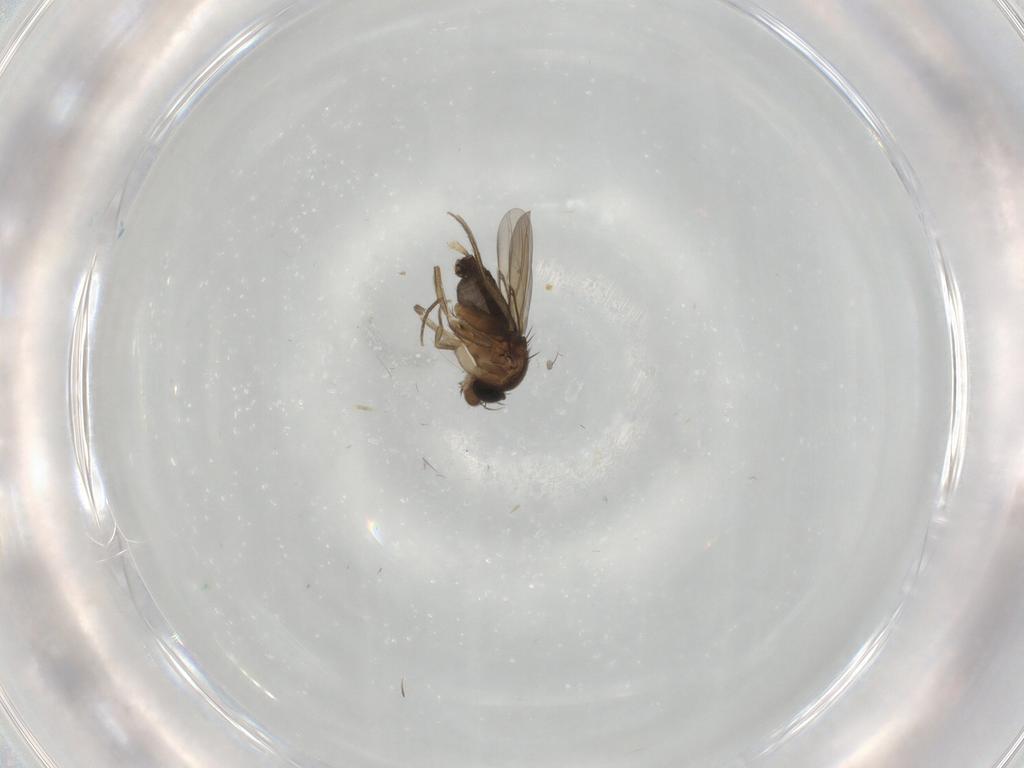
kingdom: Animalia
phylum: Arthropoda
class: Insecta
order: Diptera
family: Phoridae
